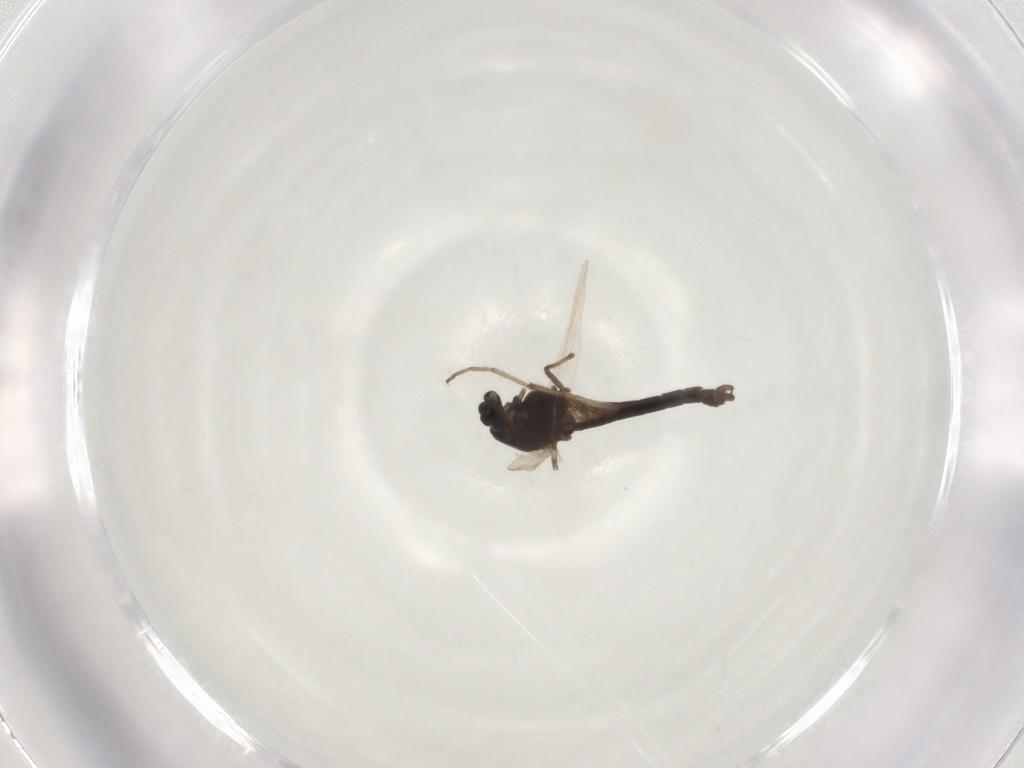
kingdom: Animalia
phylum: Arthropoda
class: Insecta
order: Diptera
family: Chironomidae
